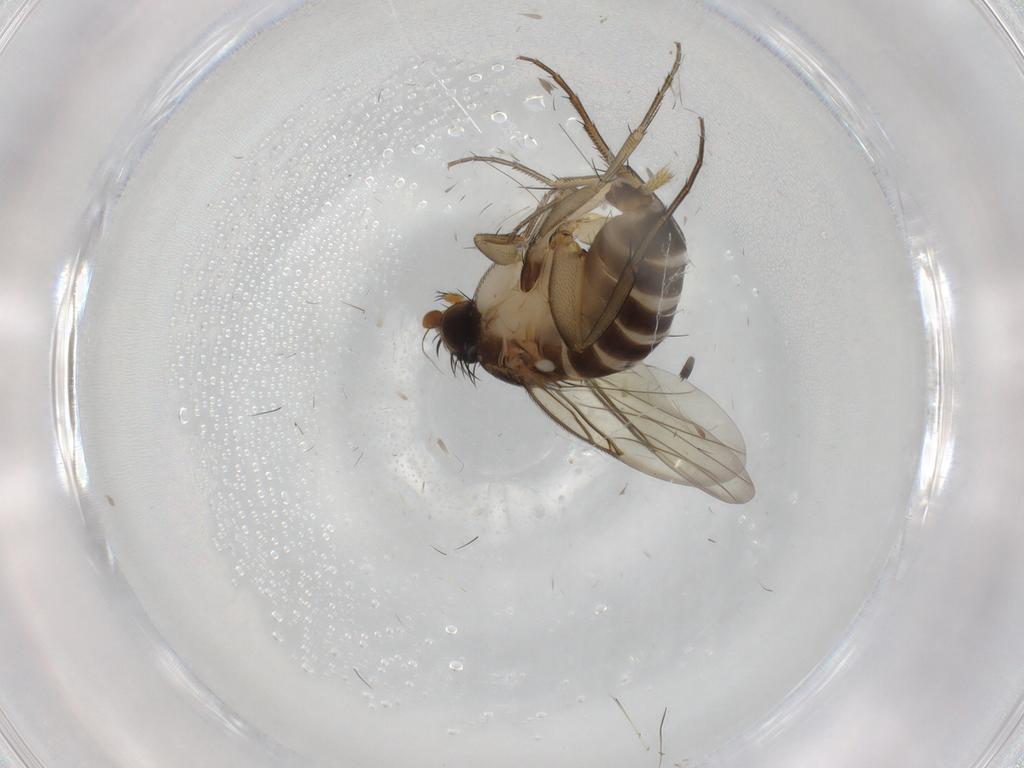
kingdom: Animalia
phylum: Arthropoda
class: Insecta
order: Diptera
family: Phoridae
